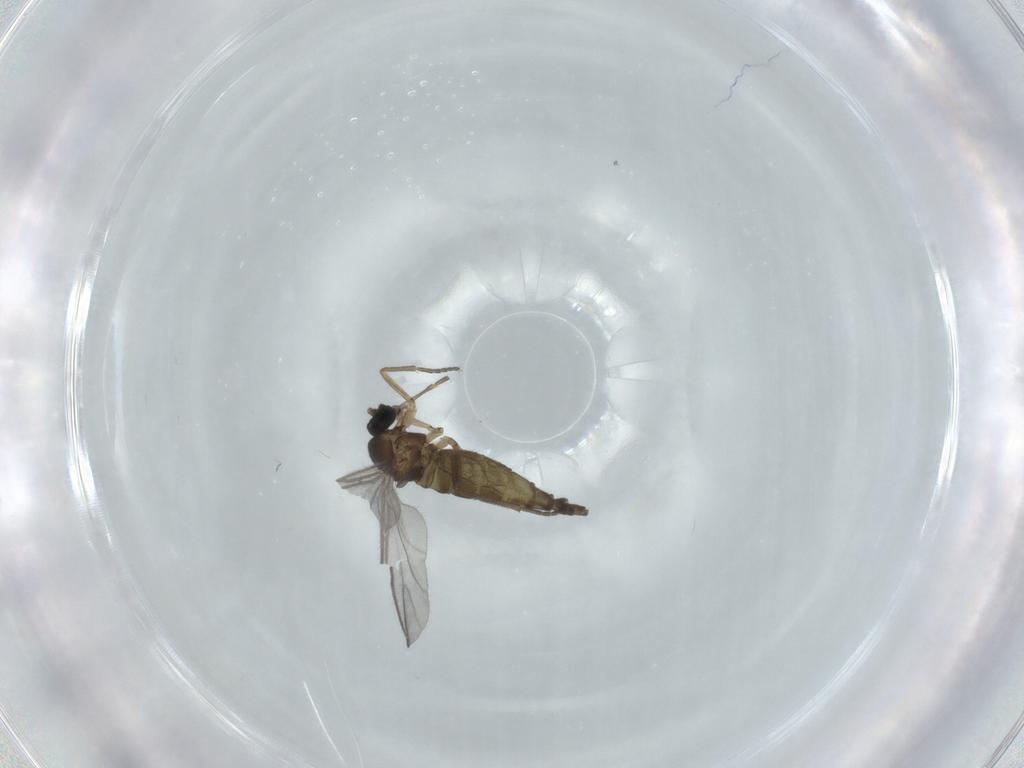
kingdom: Animalia
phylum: Arthropoda
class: Insecta
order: Diptera
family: Sciaridae
